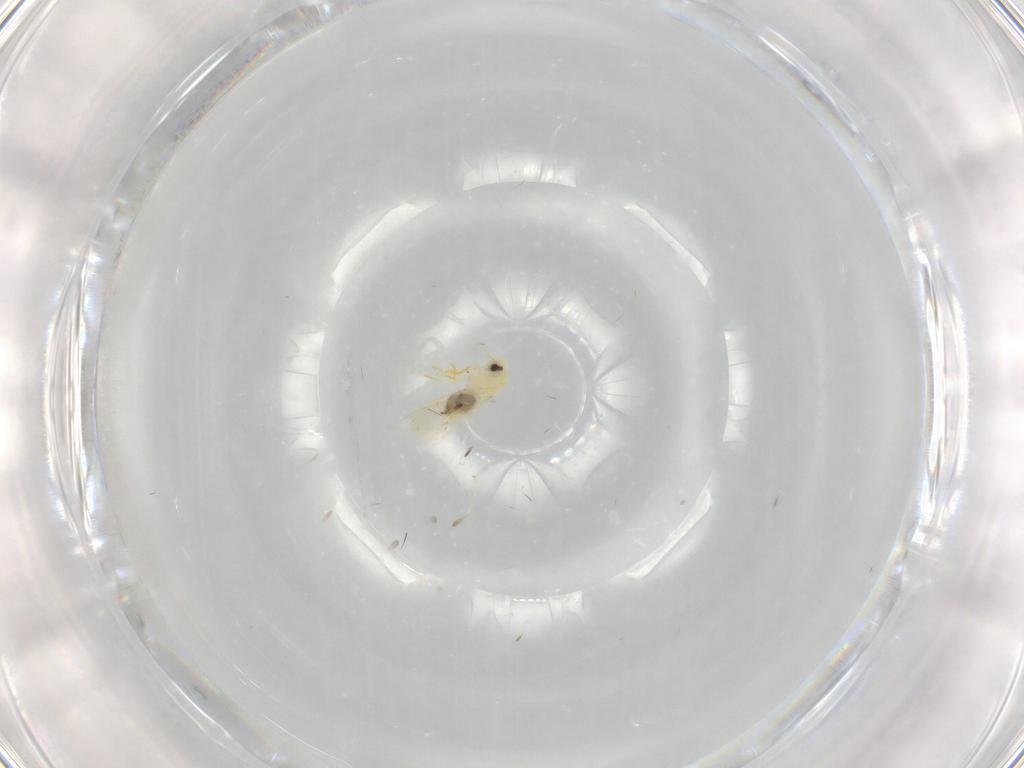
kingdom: Animalia
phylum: Arthropoda
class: Insecta
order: Hemiptera
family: Aleyrodidae
